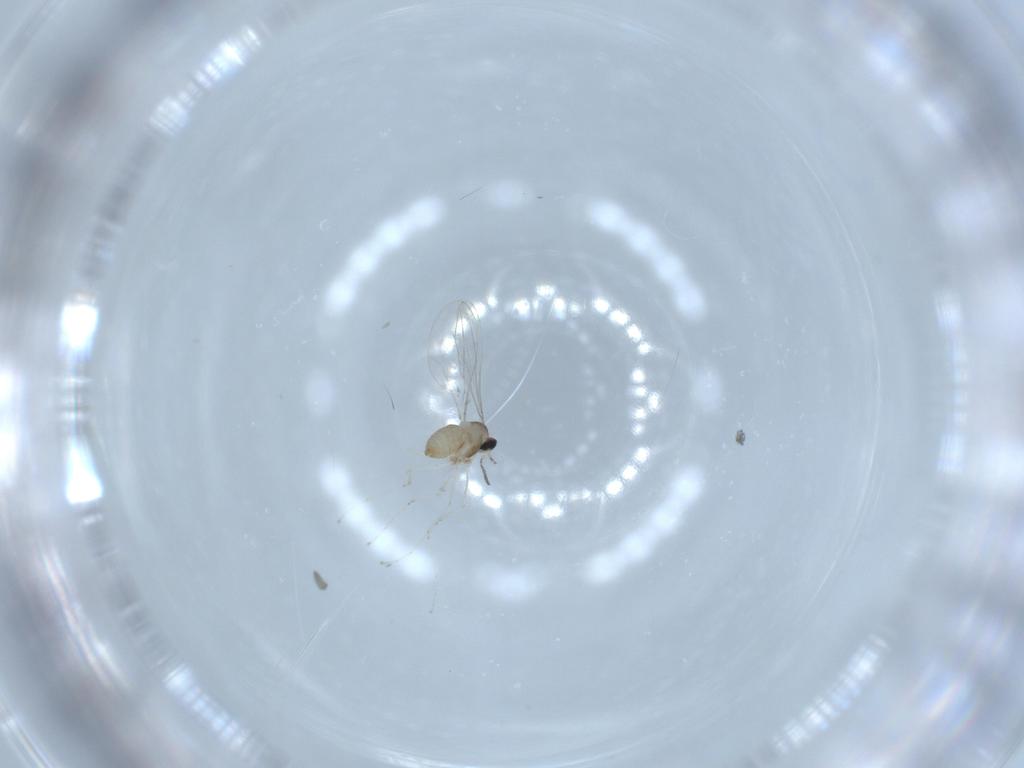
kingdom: Animalia
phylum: Arthropoda
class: Insecta
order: Diptera
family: Cecidomyiidae
